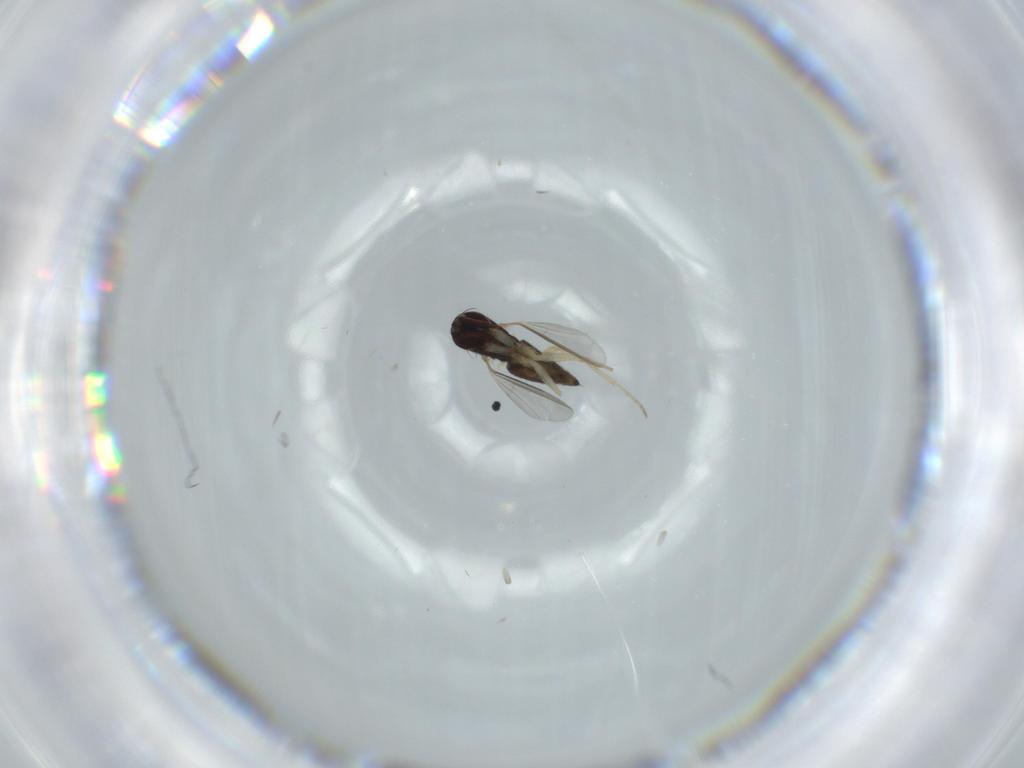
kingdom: Animalia
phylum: Arthropoda
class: Insecta
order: Diptera
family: Dolichopodidae
